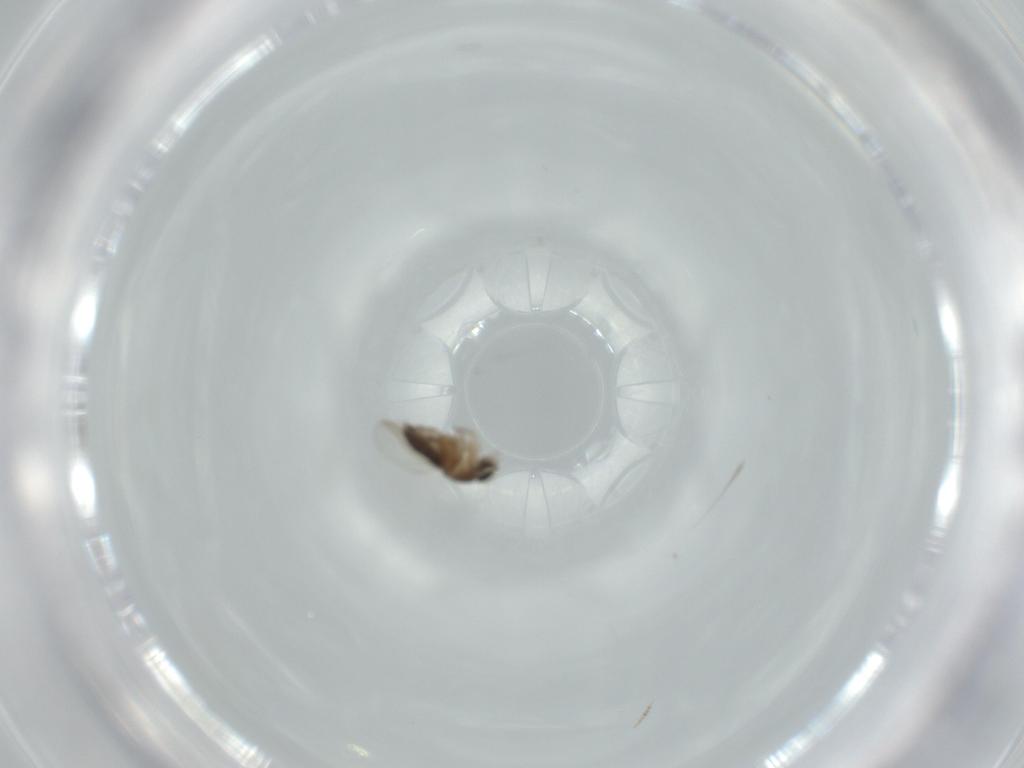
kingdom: Animalia
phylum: Arthropoda
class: Insecta
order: Diptera
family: Phoridae
